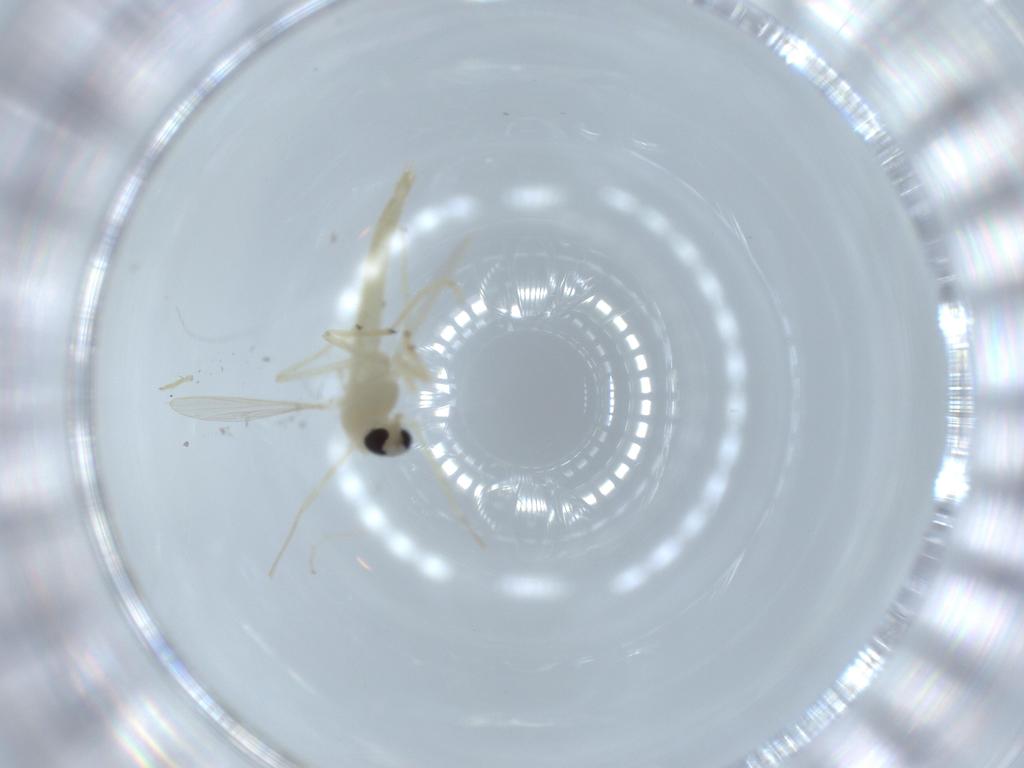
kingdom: Animalia
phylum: Arthropoda
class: Insecta
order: Diptera
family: Chironomidae
